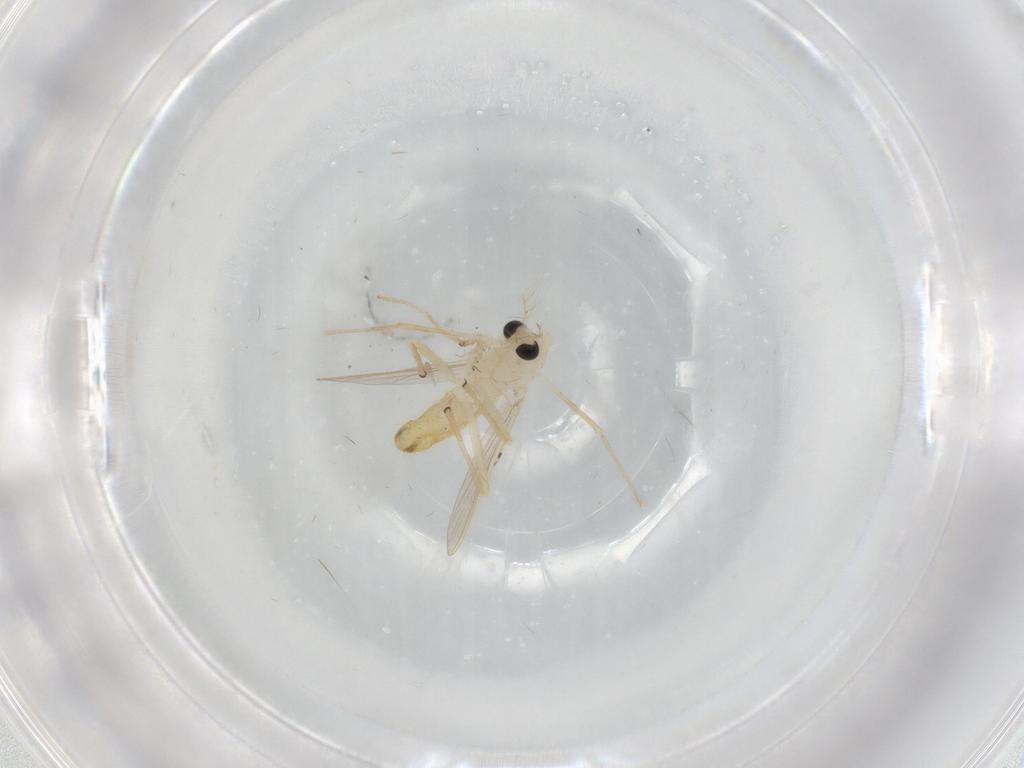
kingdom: Animalia
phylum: Arthropoda
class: Insecta
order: Diptera
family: Chironomidae
